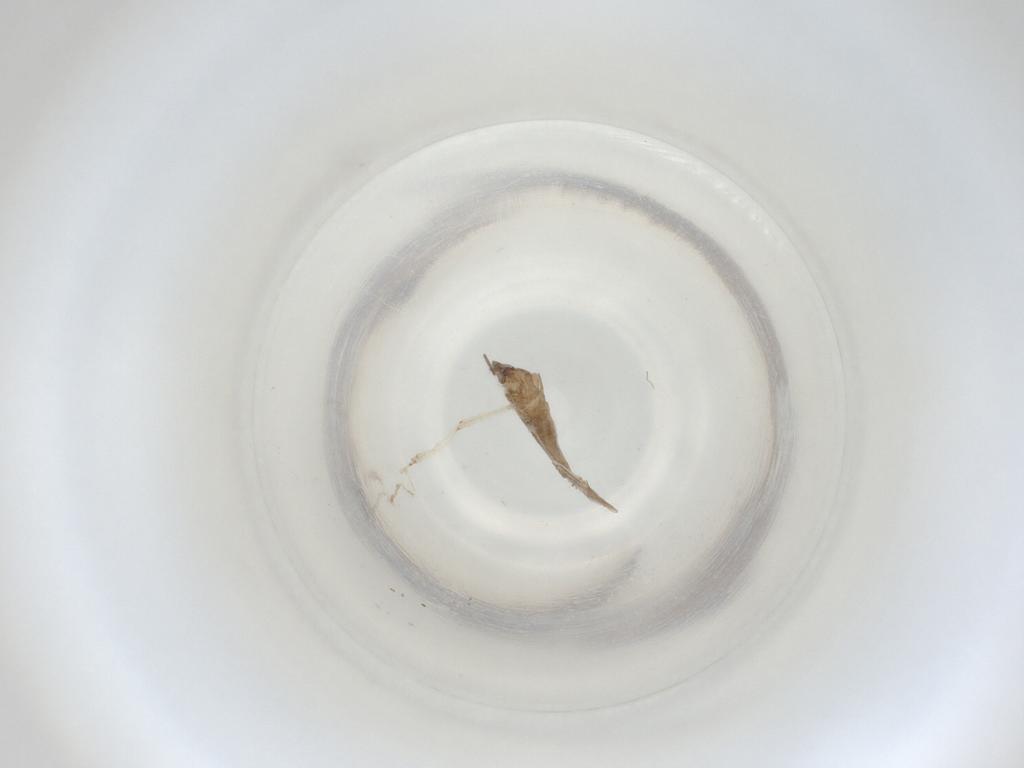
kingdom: Animalia
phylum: Arthropoda
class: Insecta
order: Diptera
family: Cecidomyiidae
